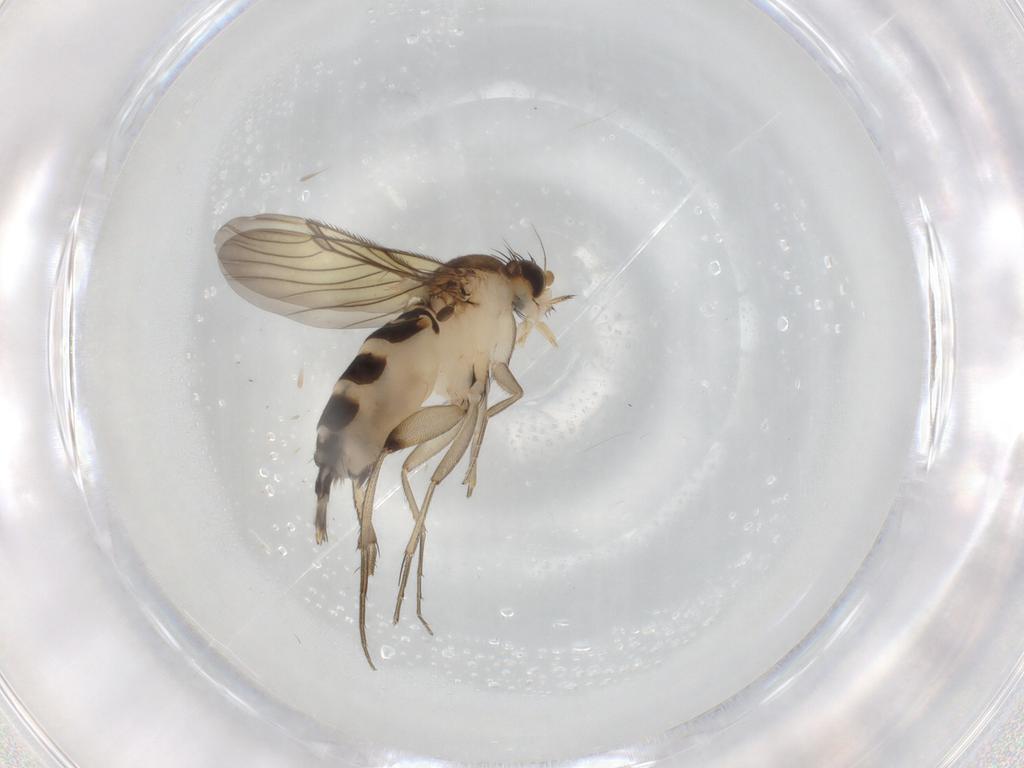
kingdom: Animalia
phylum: Arthropoda
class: Insecta
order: Diptera
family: Phoridae
